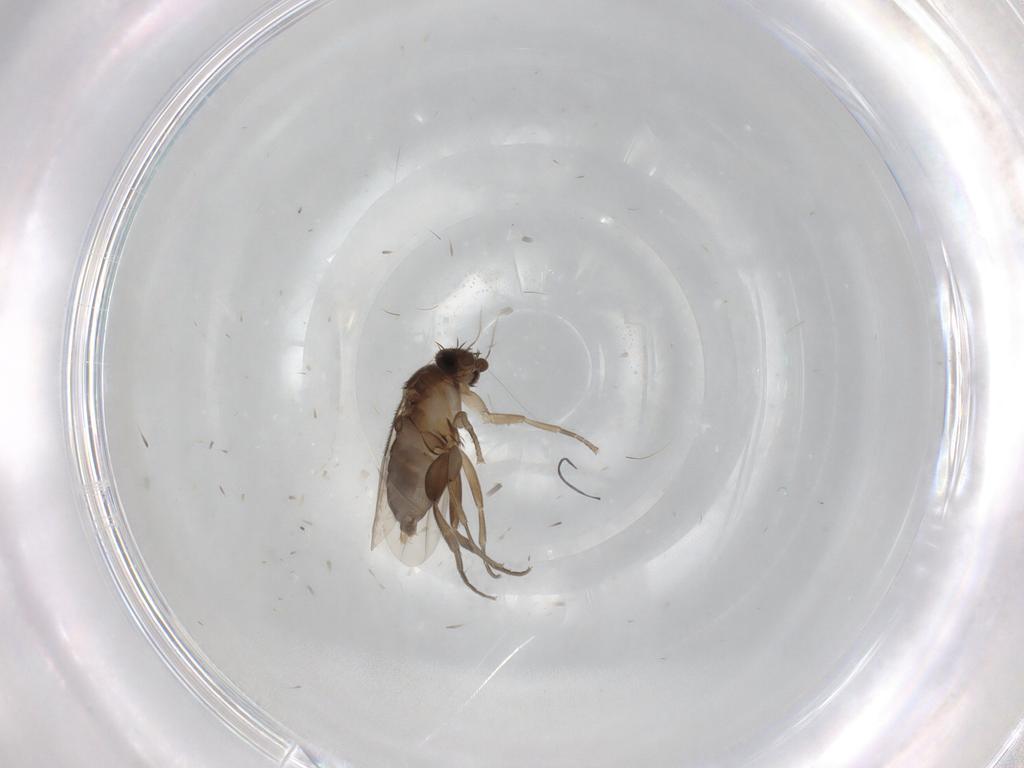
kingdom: Animalia
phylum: Arthropoda
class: Insecta
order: Diptera
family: Phoridae
